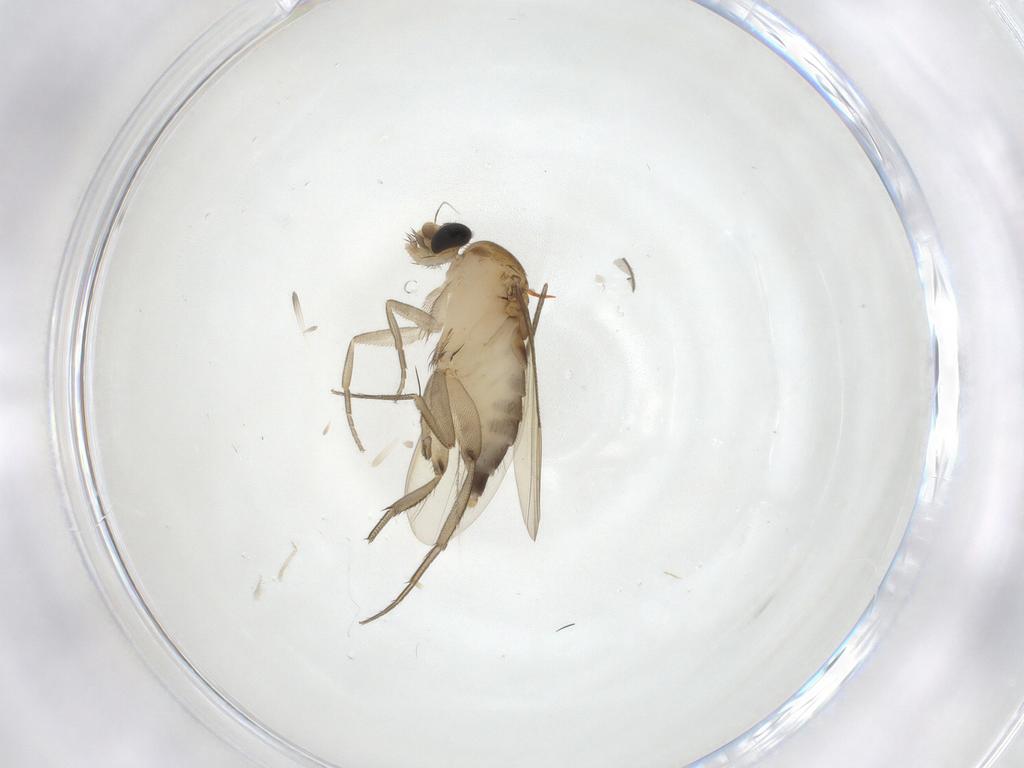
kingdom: Animalia
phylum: Arthropoda
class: Insecta
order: Diptera
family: Phoridae
